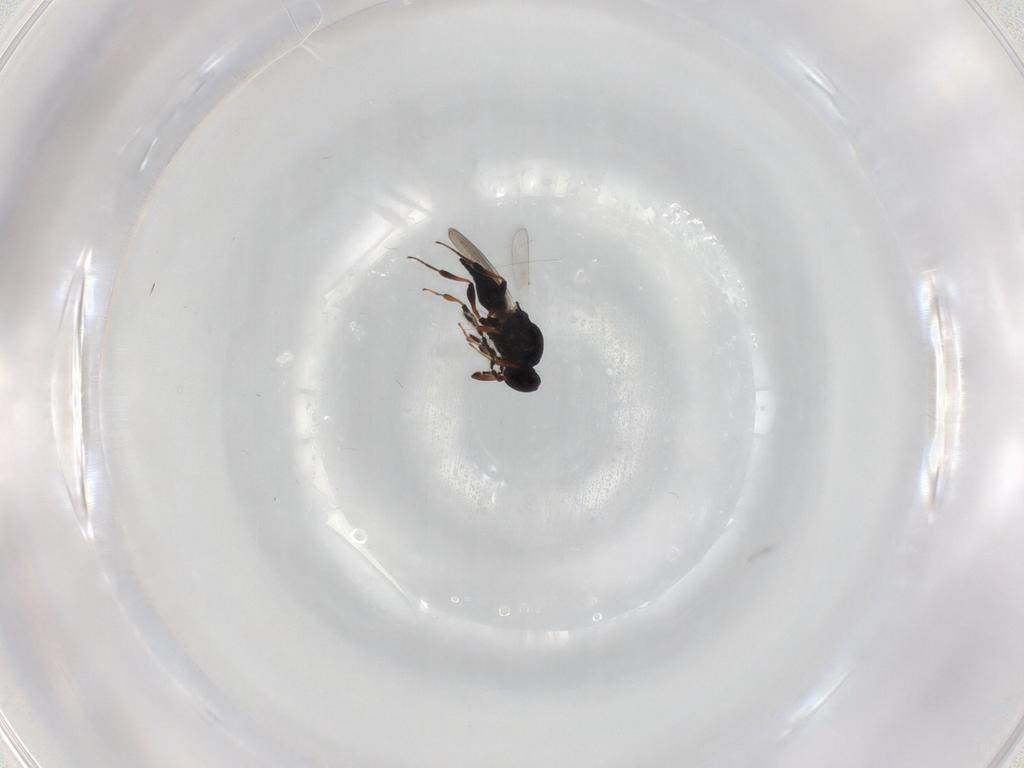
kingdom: Animalia
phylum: Arthropoda
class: Insecta
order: Hymenoptera
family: Platygastridae
